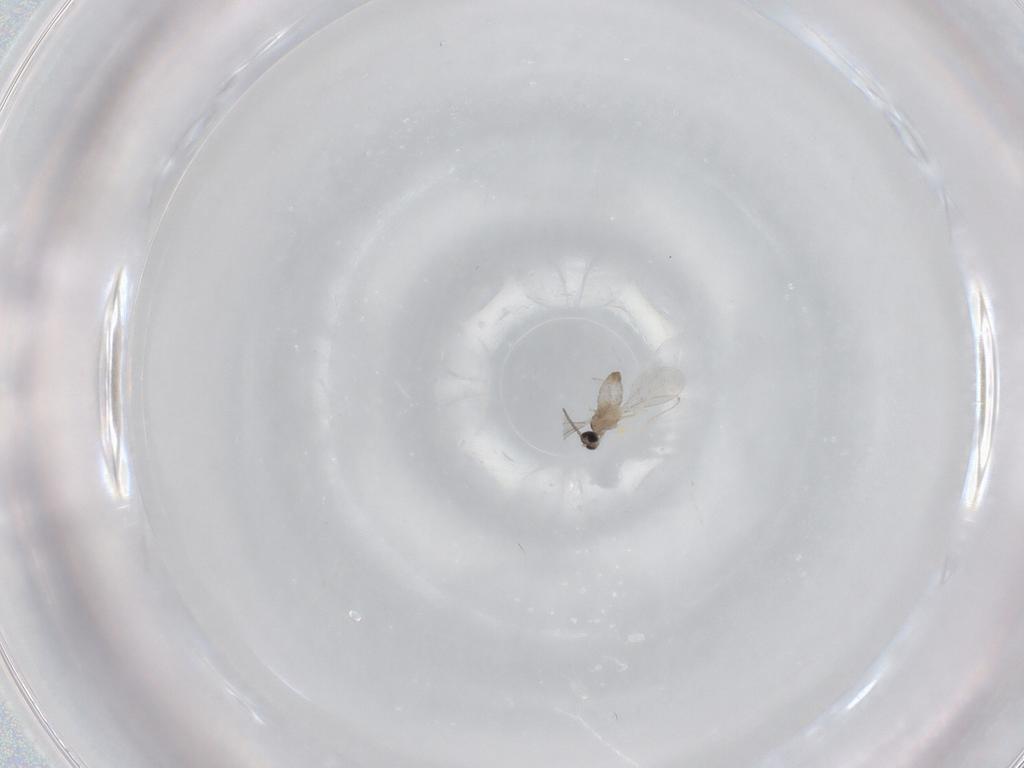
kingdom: Animalia
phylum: Arthropoda
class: Insecta
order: Diptera
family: Cecidomyiidae
